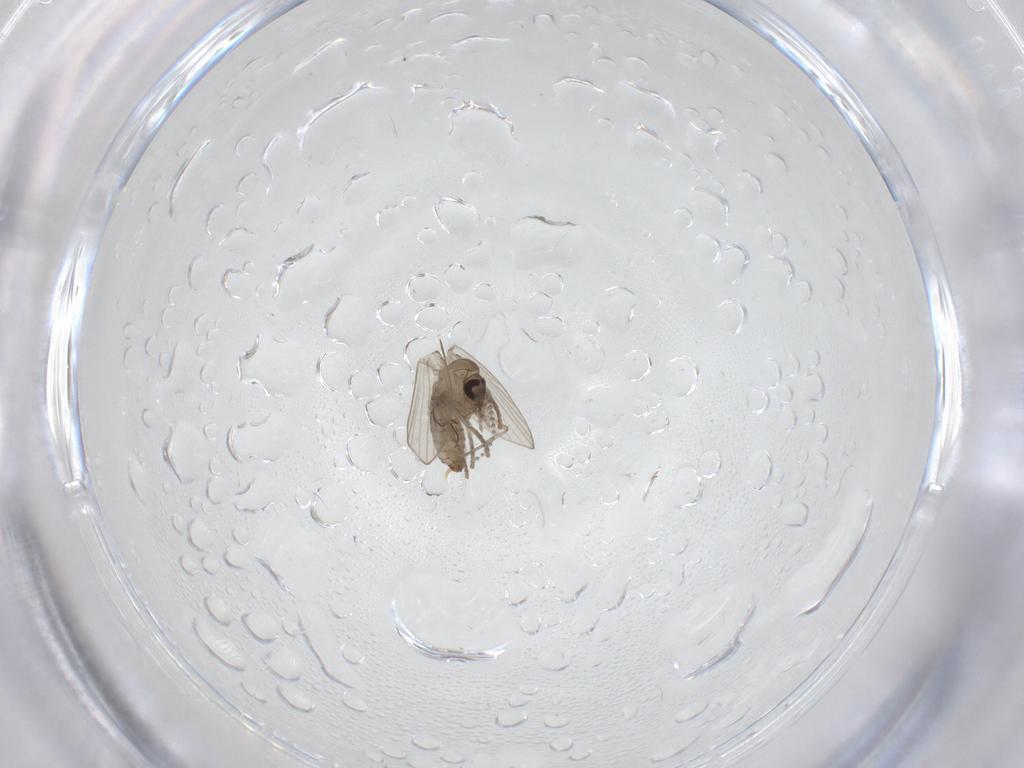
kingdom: Animalia
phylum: Arthropoda
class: Insecta
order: Diptera
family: Psychodidae
